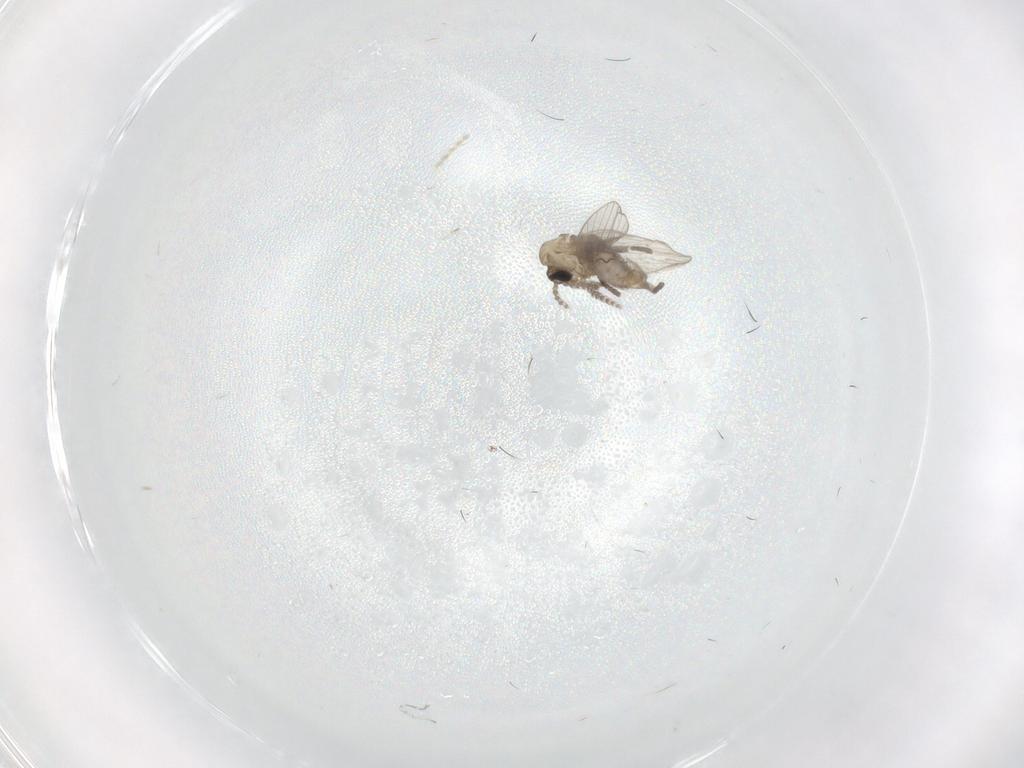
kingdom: Animalia
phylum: Arthropoda
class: Insecta
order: Diptera
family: Psychodidae
